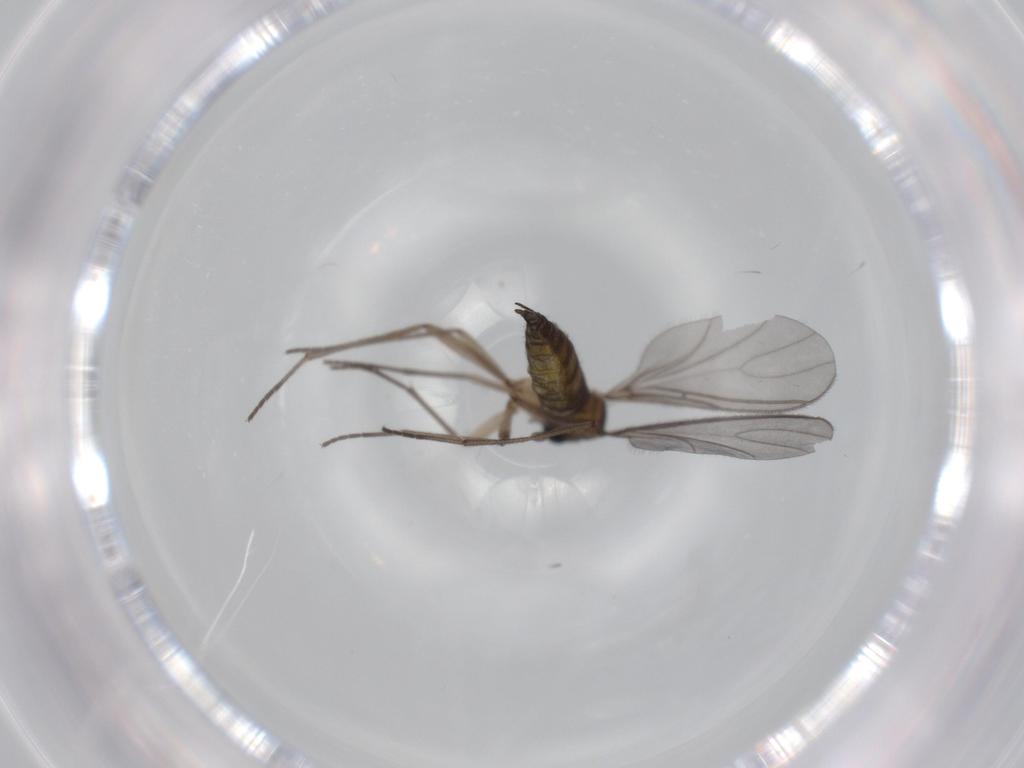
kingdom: Animalia
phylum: Arthropoda
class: Insecta
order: Diptera
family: Sciaridae
